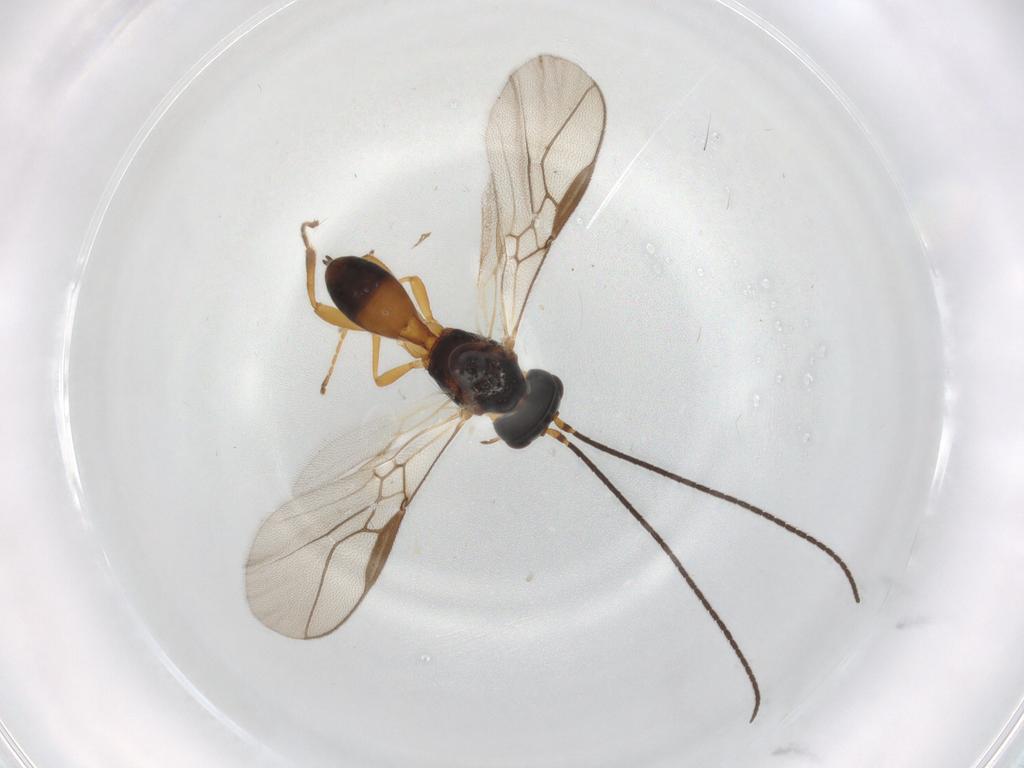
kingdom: Animalia
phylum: Arthropoda
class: Insecta
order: Hymenoptera
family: Braconidae
